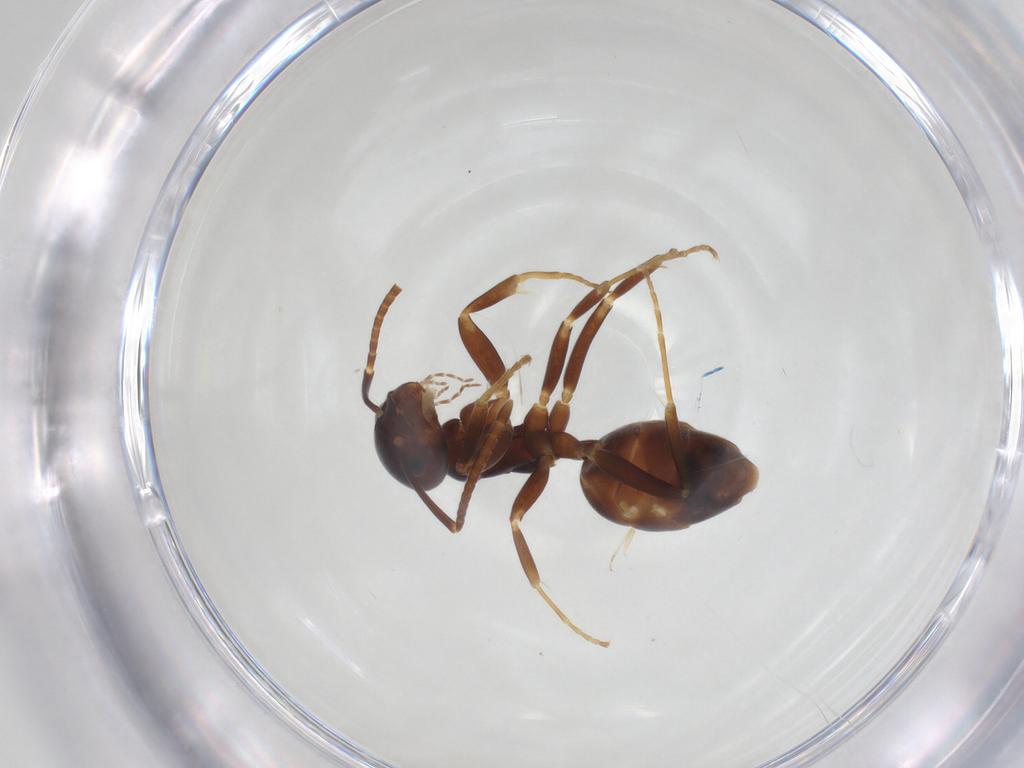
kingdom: Animalia
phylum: Arthropoda
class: Insecta
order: Hymenoptera
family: Formicidae
